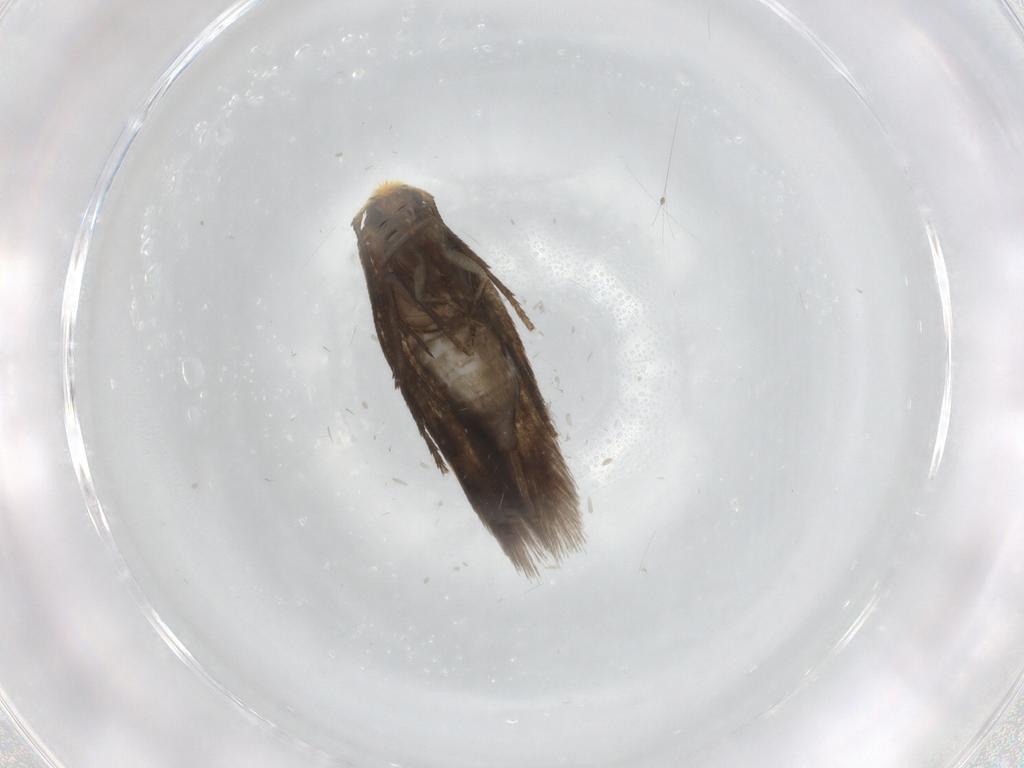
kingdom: Animalia
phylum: Arthropoda
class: Insecta
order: Lepidoptera
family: Nepticulidae
